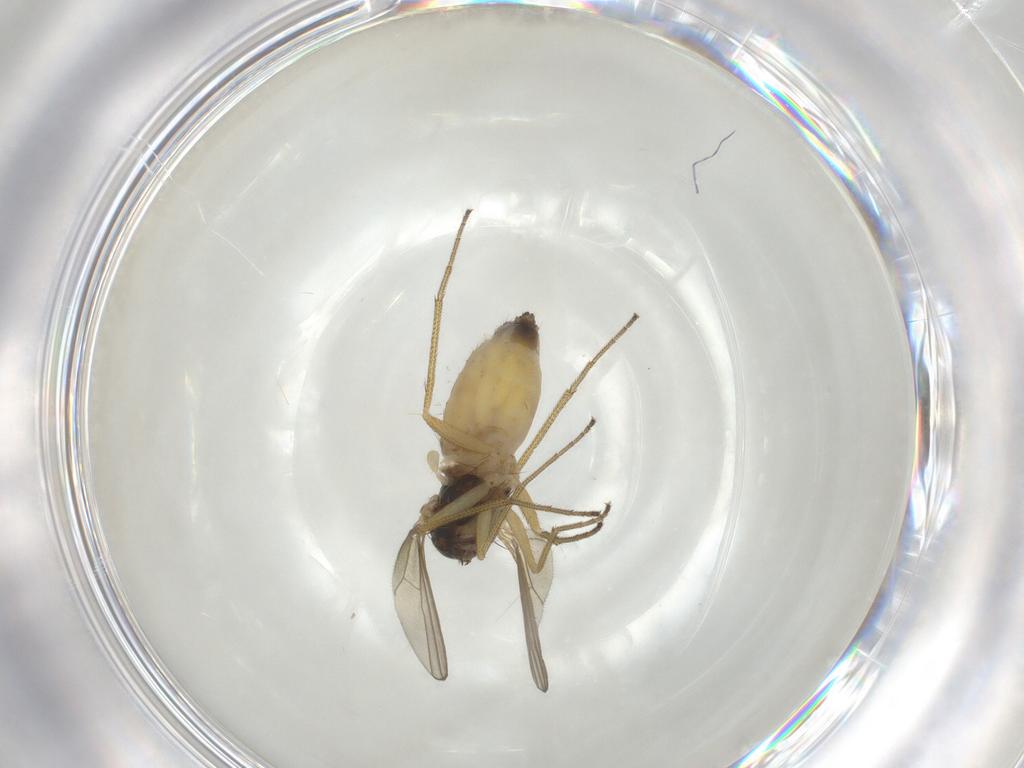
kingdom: Animalia
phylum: Arthropoda
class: Insecta
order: Diptera
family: Dolichopodidae
